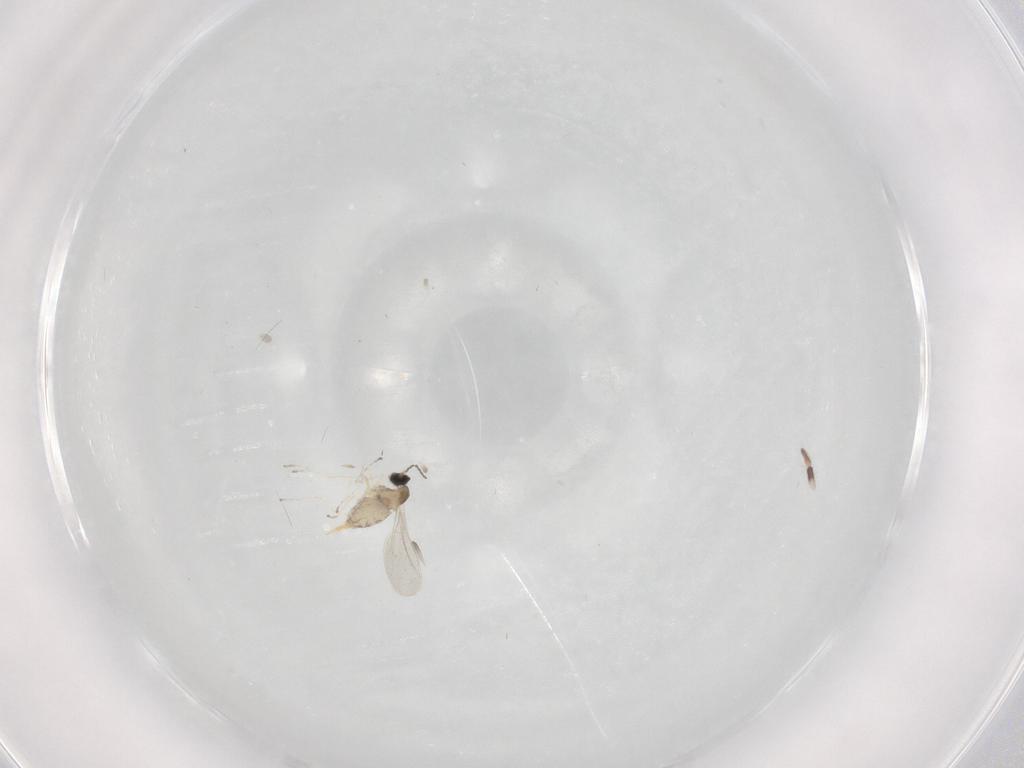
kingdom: Animalia
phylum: Arthropoda
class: Insecta
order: Diptera
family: Cecidomyiidae
